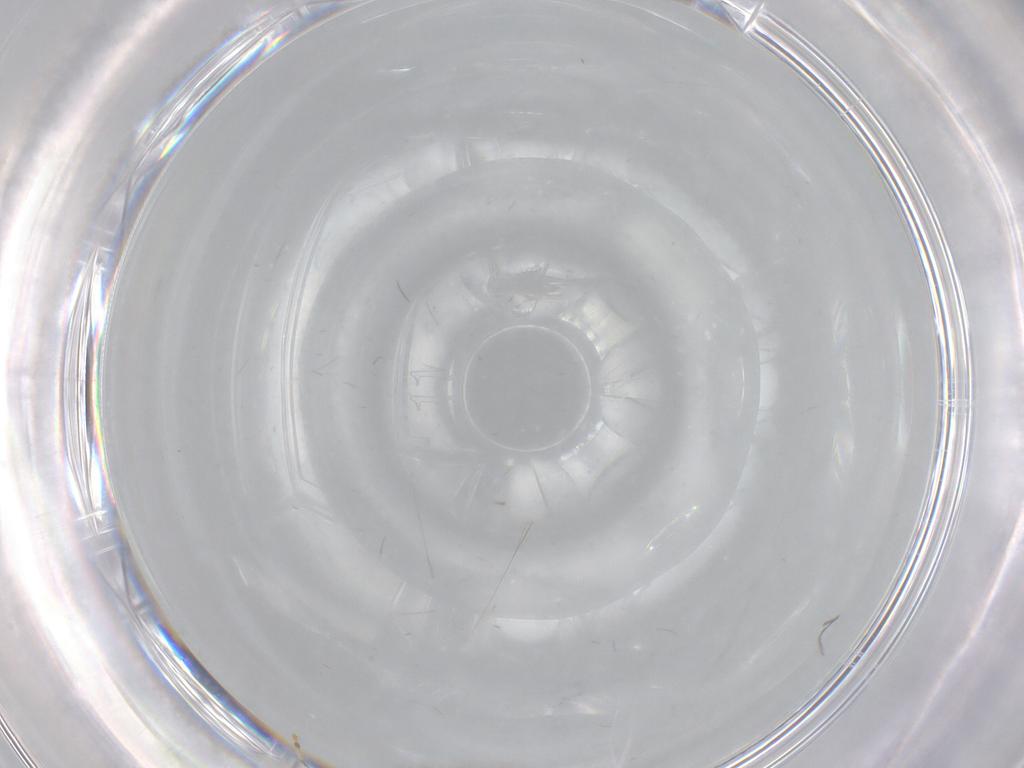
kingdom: Animalia
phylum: Arthropoda
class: Insecta
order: Diptera
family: Cecidomyiidae
